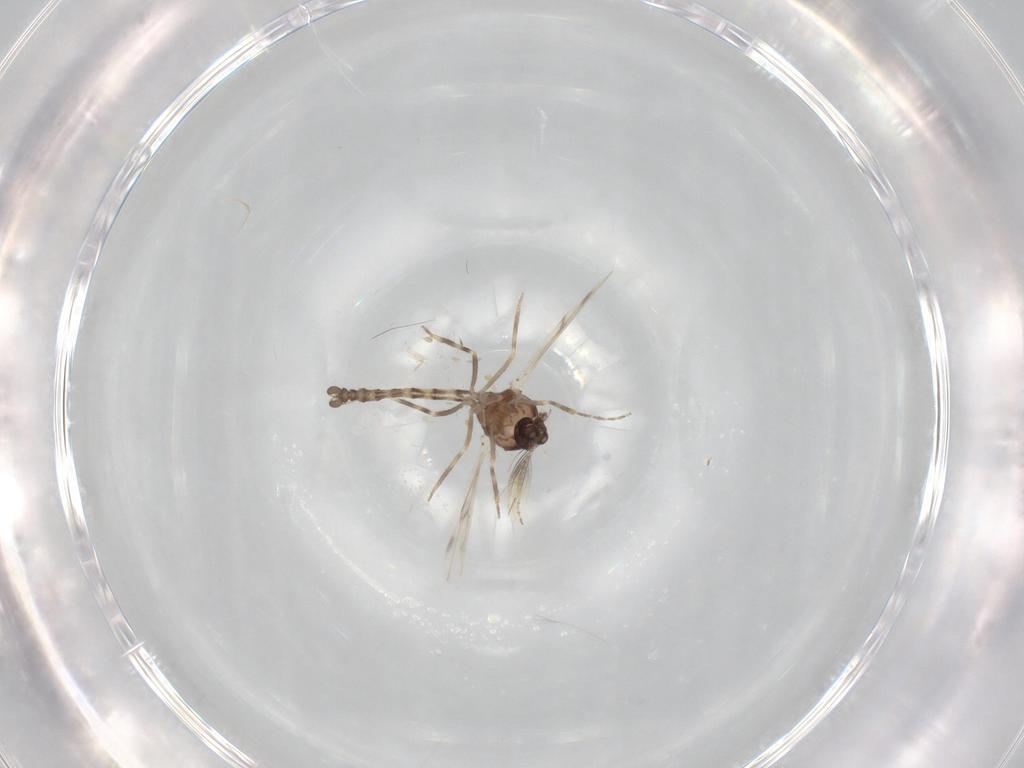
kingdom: Animalia
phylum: Arthropoda
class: Insecta
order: Diptera
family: Ceratopogonidae
